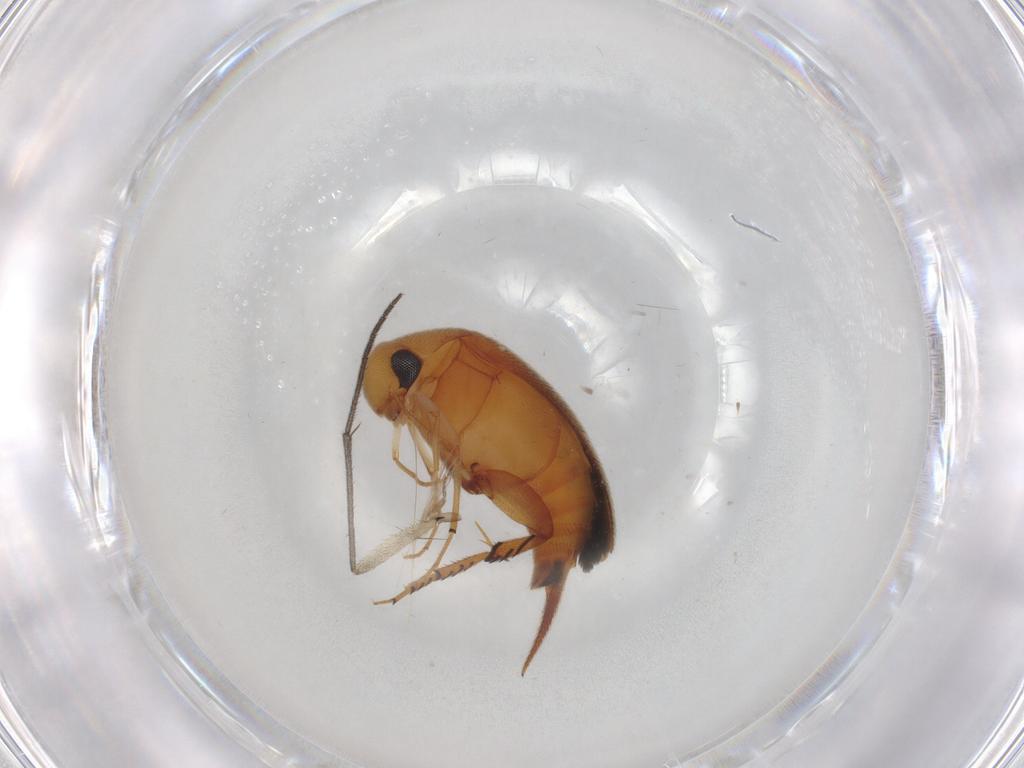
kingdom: Animalia
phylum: Arthropoda
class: Insecta
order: Coleoptera
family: Mordellidae
